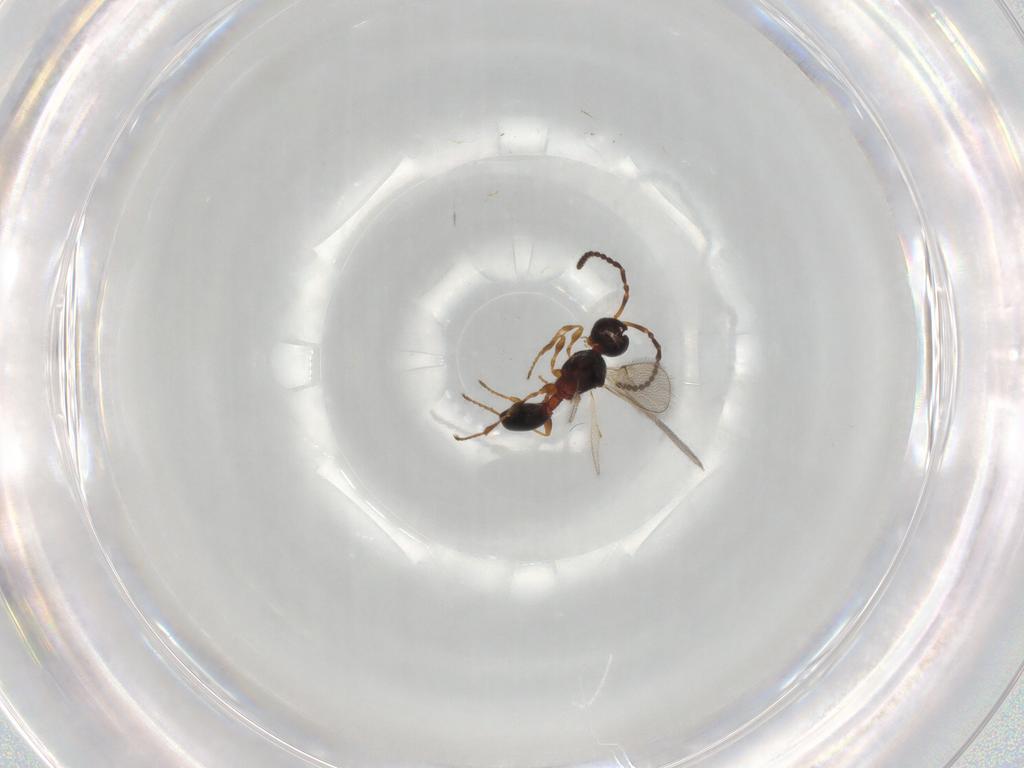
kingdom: Animalia
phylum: Arthropoda
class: Insecta
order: Hymenoptera
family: Diapriidae
